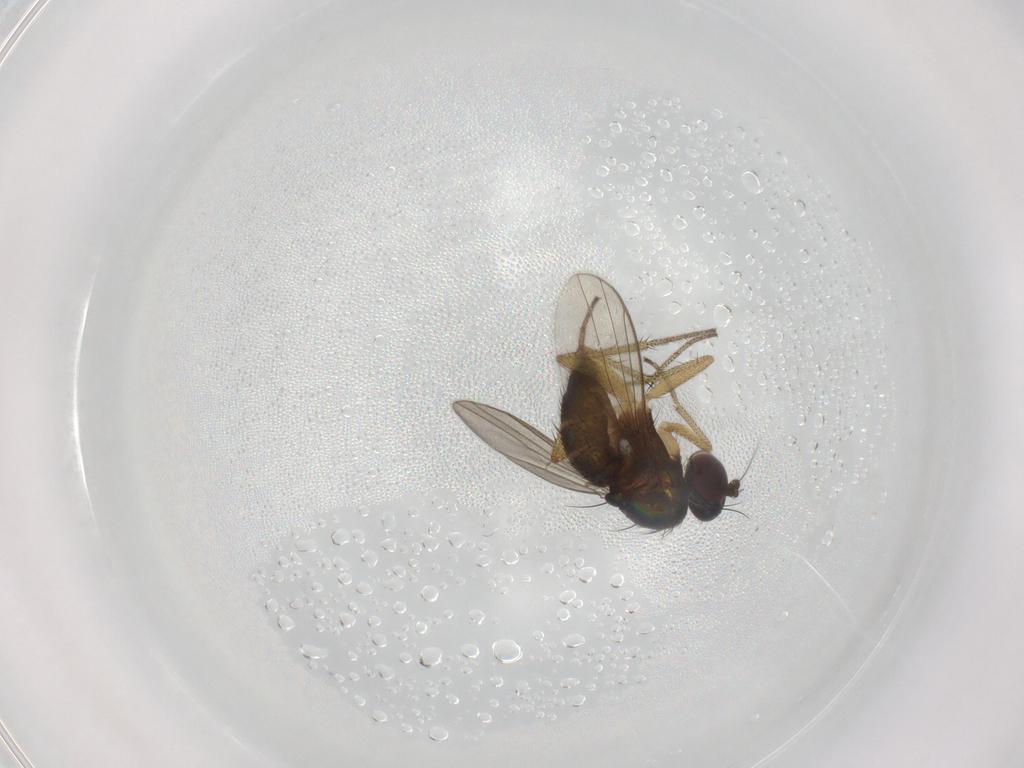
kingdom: Animalia
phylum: Arthropoda
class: Insecta
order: Diptera
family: Dolichopodidae
